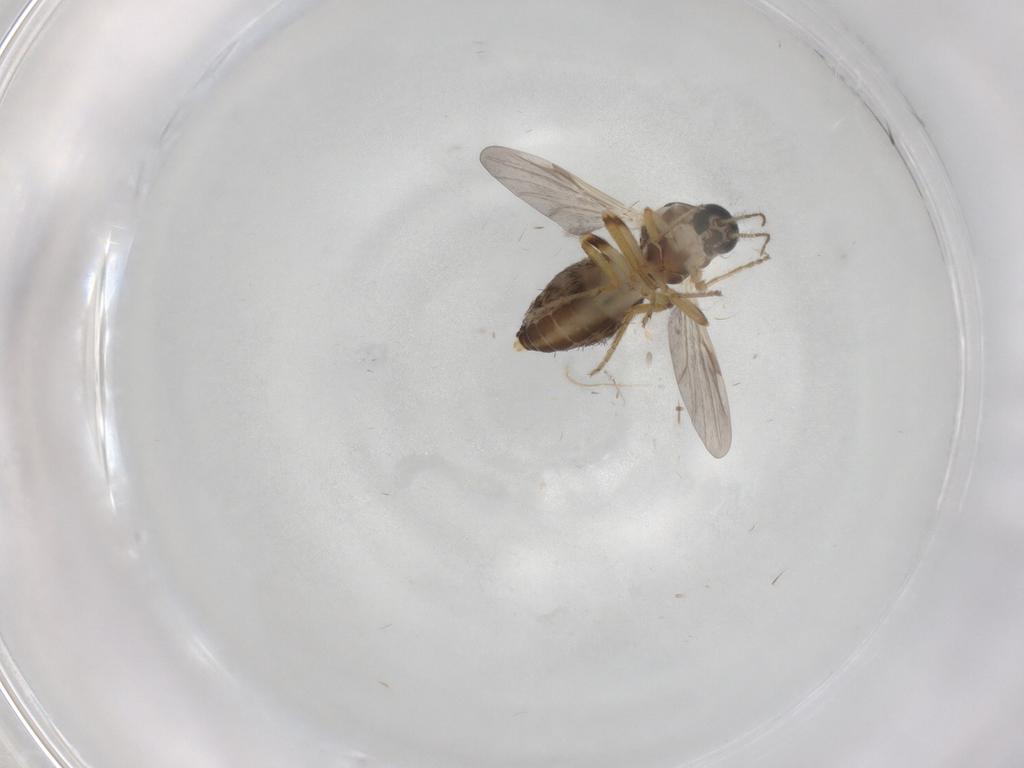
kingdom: Animalia
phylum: Arthropoda
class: Insecta
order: Diptera
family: Ceratopogonidae
